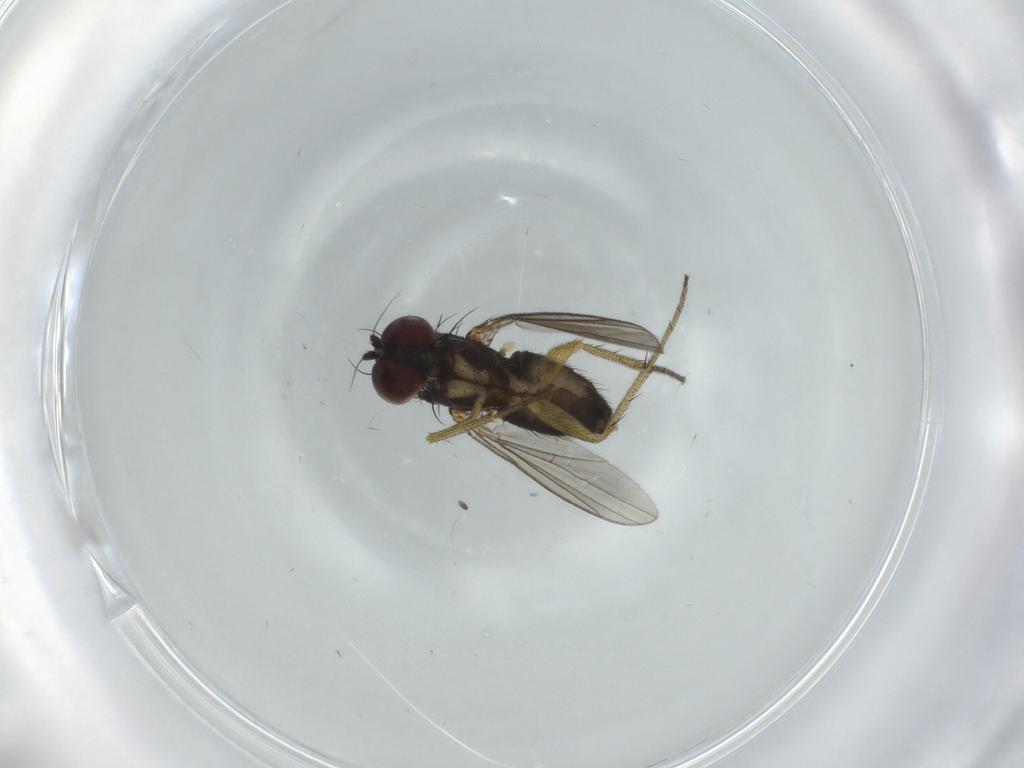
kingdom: Animalia
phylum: Arthropoda
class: Insecta
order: Diptera
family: Dolichopodidae
